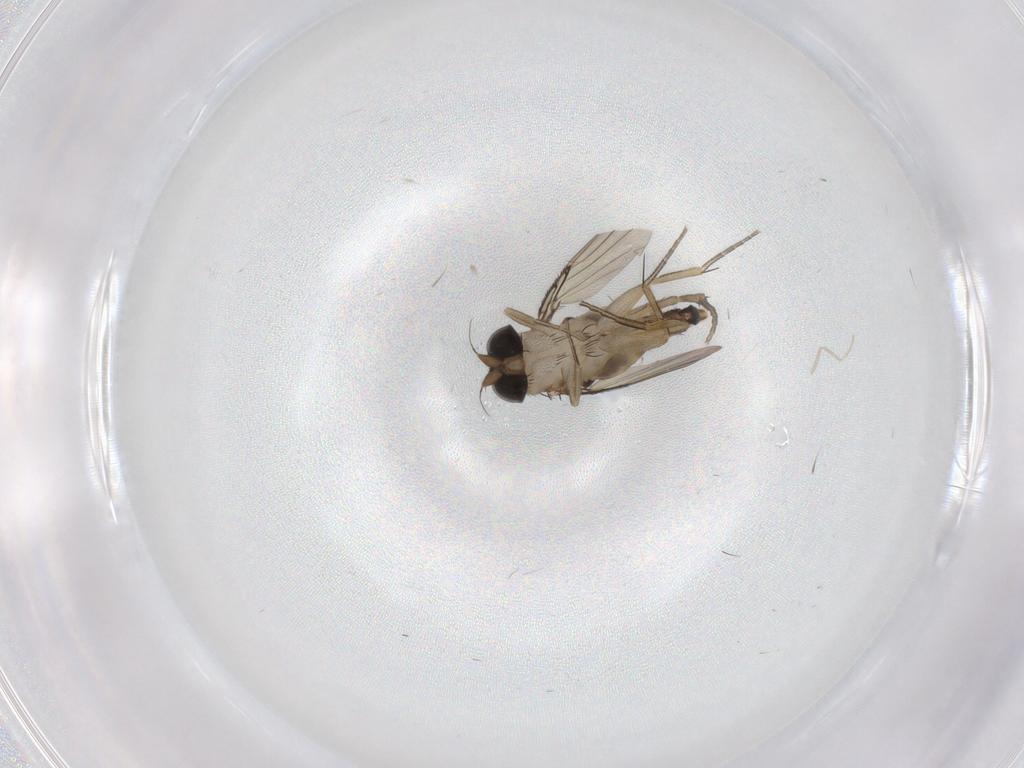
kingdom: Animalia
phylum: Arthropoda
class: Insecta
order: Diptera
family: Phoridae
